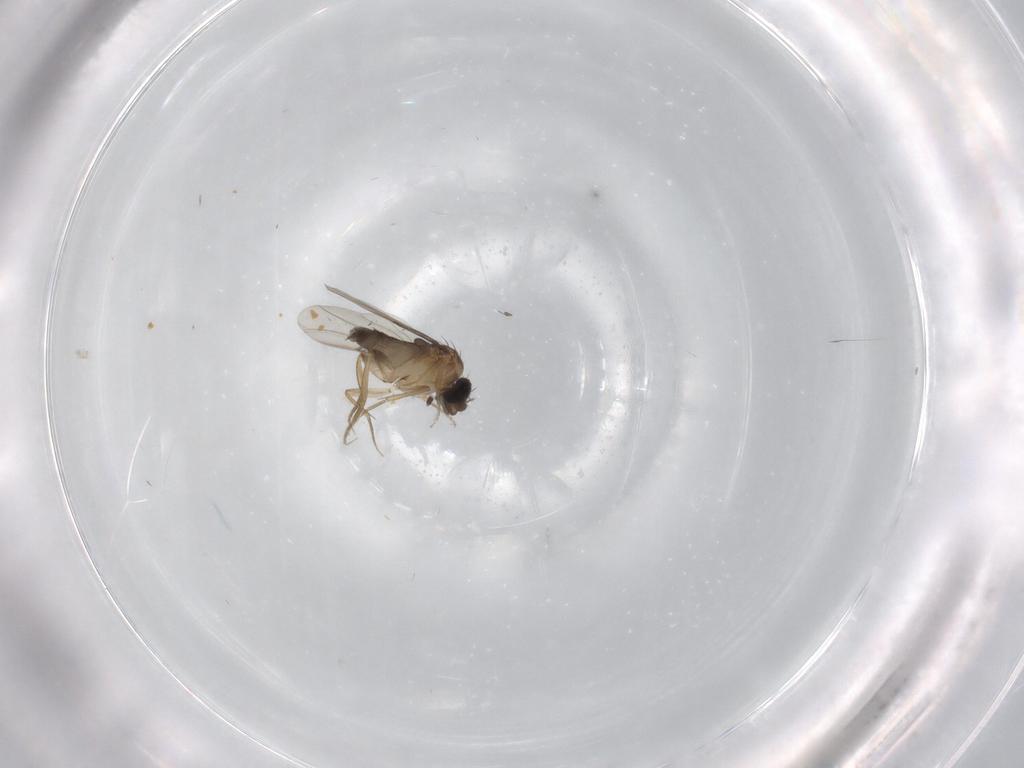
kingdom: Animalia
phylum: Arthropoda
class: Insecta
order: Diptera
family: Phoridae
